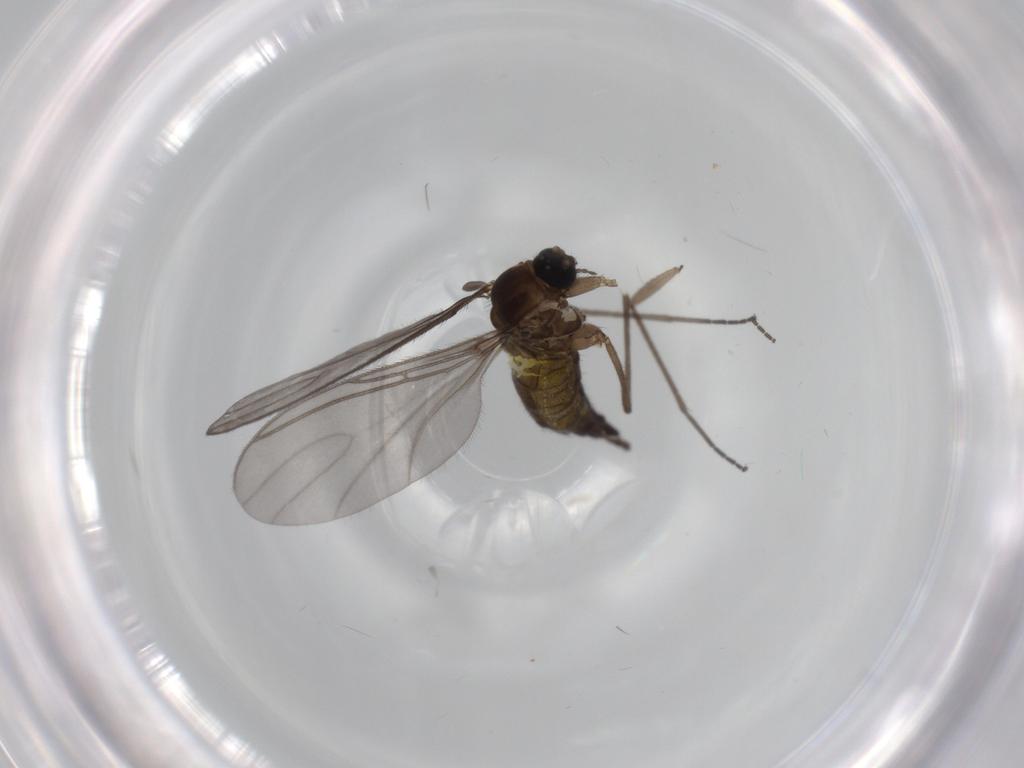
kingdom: Animalia
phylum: Arthropoda
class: Insecta
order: Diptera
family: Sciaridae
